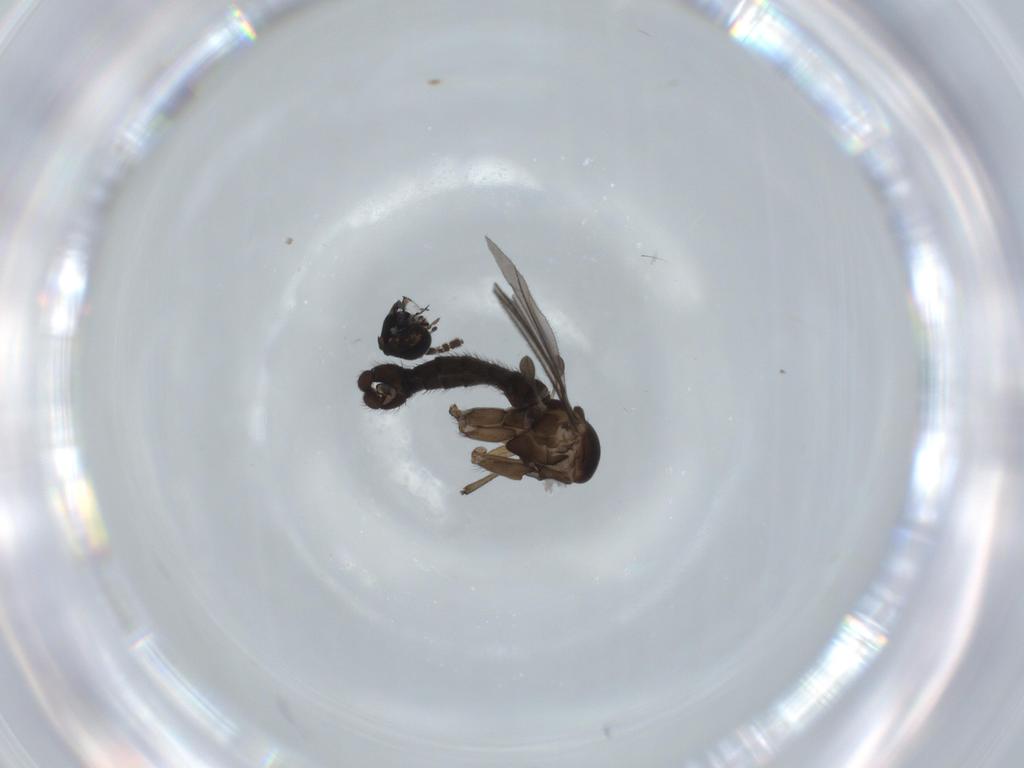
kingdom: Animalia
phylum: Arthropoda
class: Insecta
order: Diptera
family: Sciaridae
